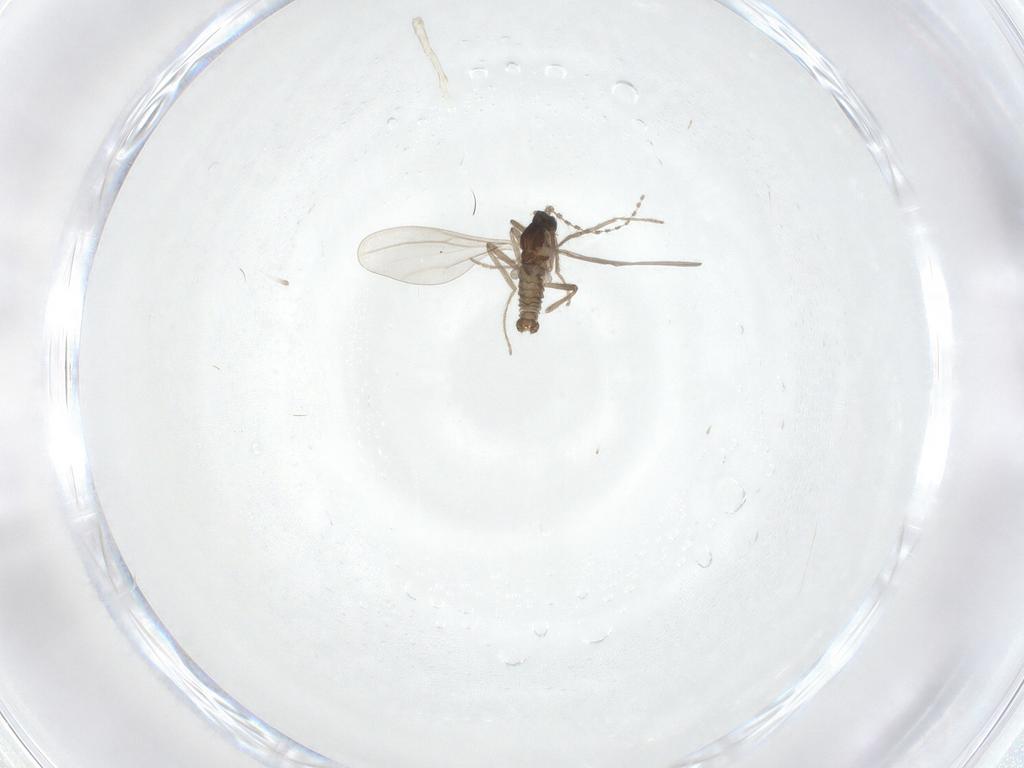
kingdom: Animalia
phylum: Arthropoda
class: Insecta
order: Diptera
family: Cecidomyiidae
